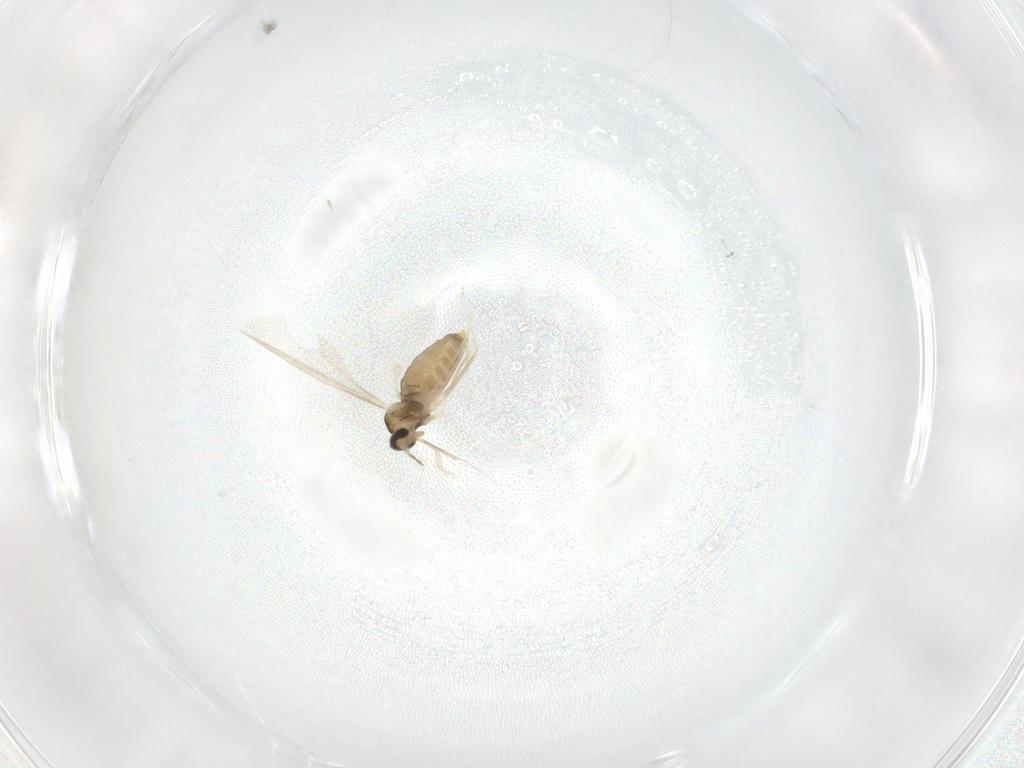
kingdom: Animalia
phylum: Arthropoda
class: Insecta
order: Diptera
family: Cecidomyiidae
